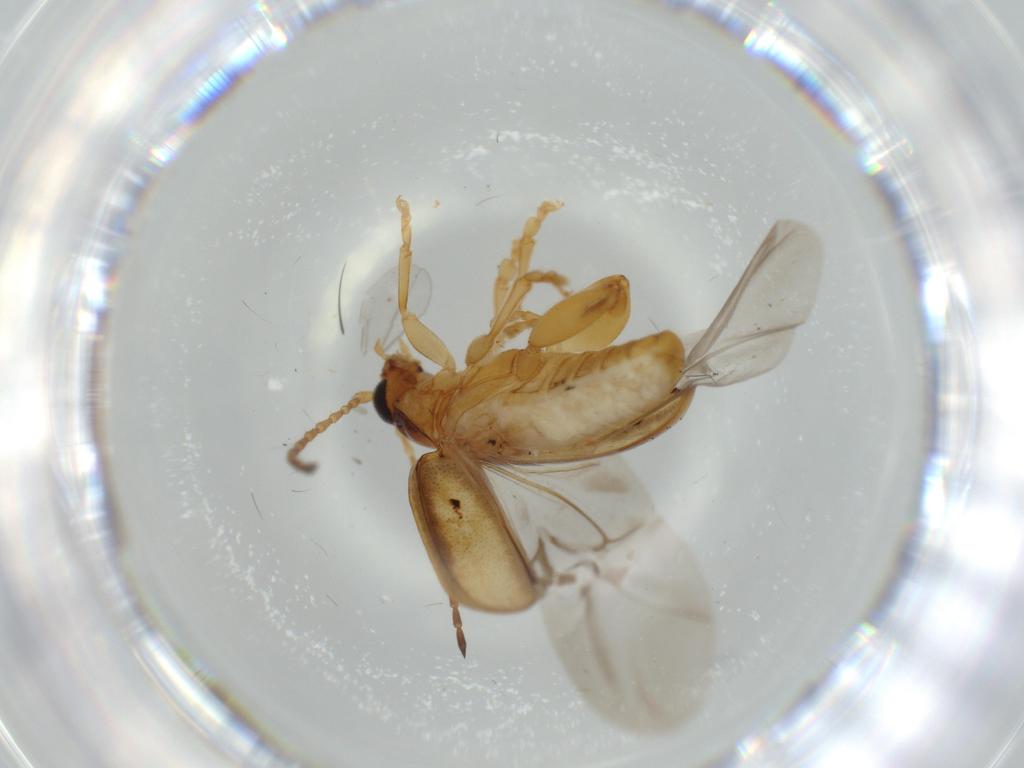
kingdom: Animalia
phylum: Arthropoda
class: Insecta
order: Coleoptera
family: Chrysomelidae
